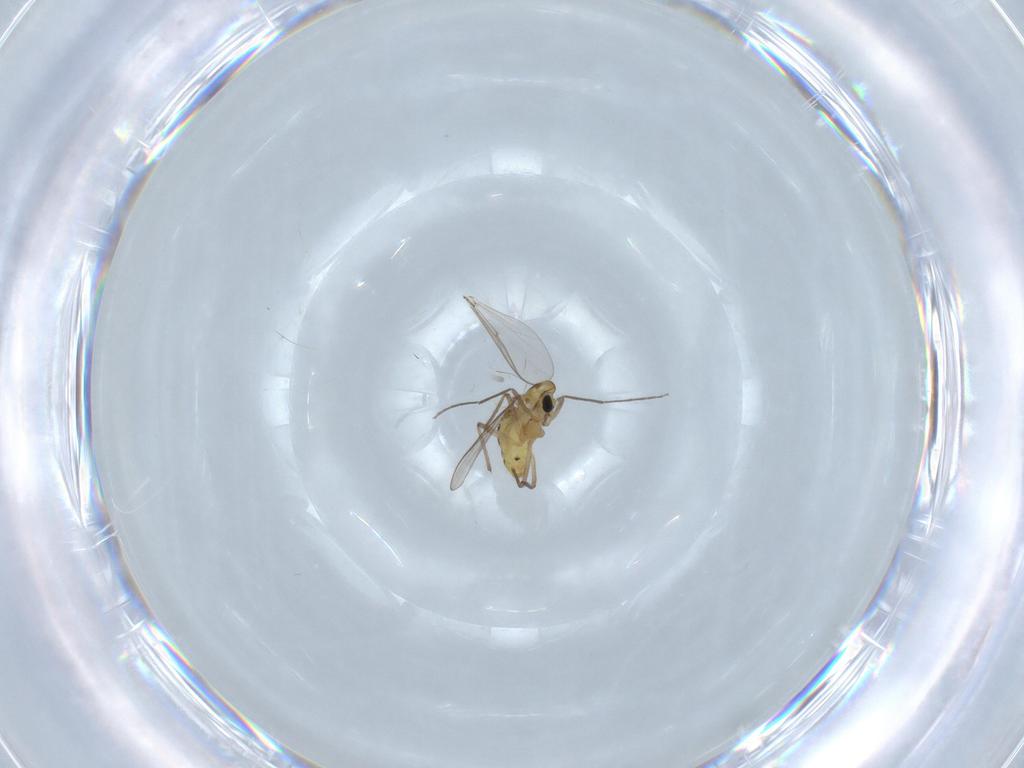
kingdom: Animalia
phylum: Arthropoda
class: Insecta
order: Diptera
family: Chironomidae
